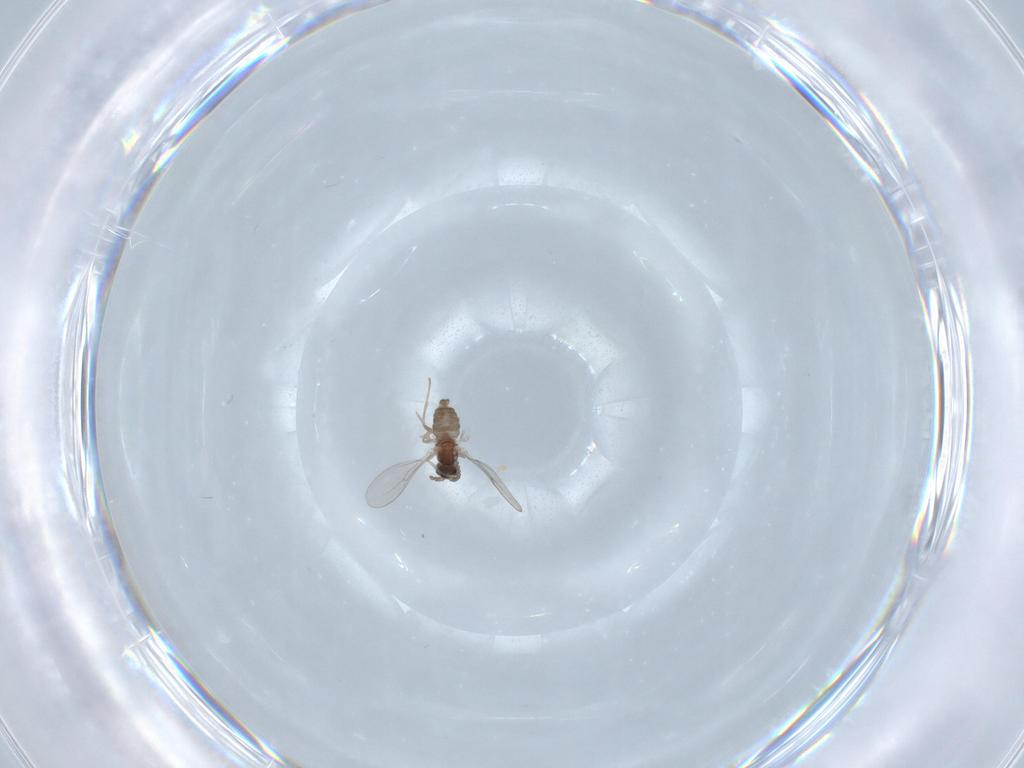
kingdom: Animalia
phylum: Arthropoda
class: Insecta
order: Diptera
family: Cecidomyiidae
